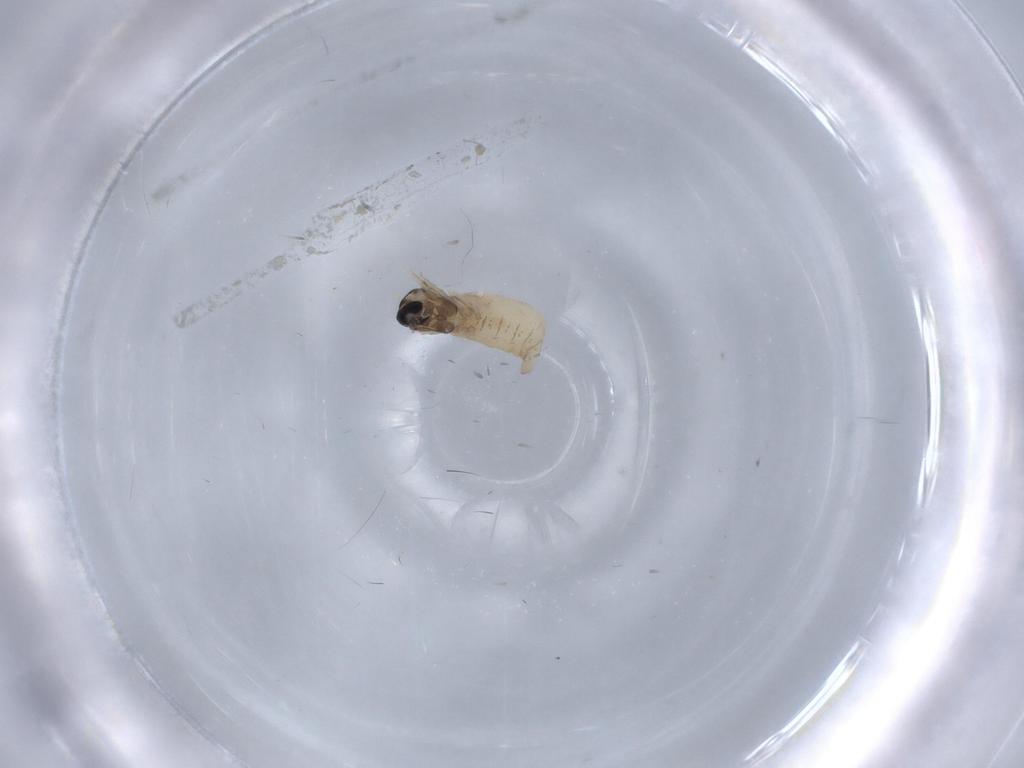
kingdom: Animalia
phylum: Arthropoda
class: Insecta
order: Diptera
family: Cecidomyiidae
